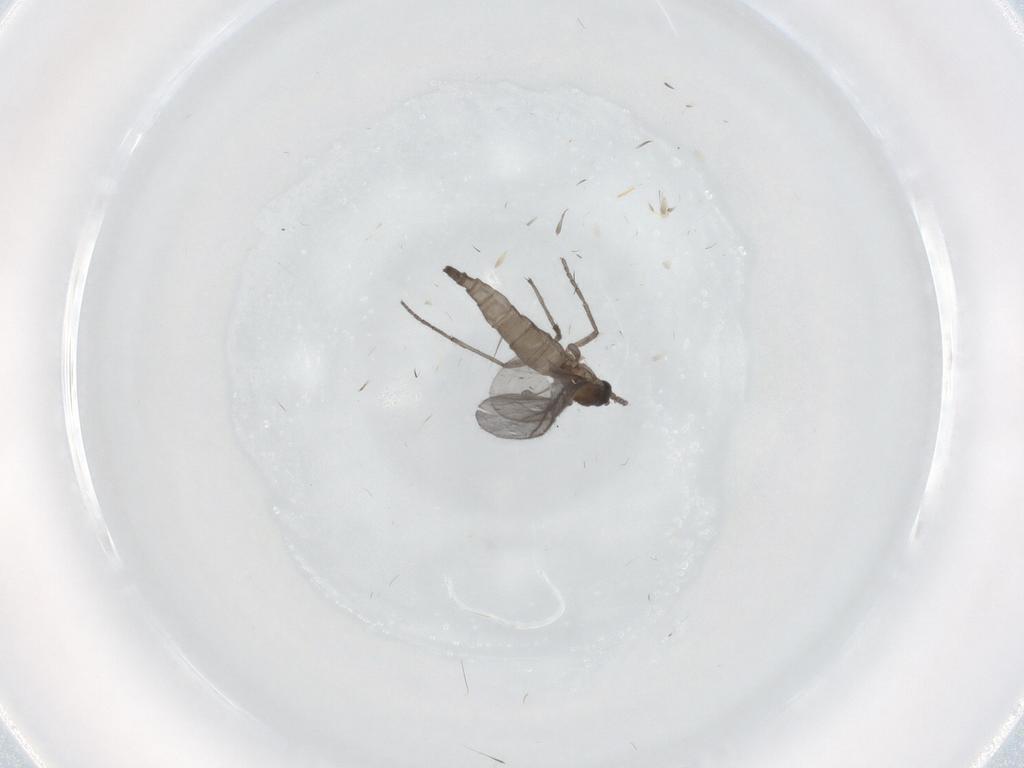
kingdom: Animalia
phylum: Arthropoda
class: Insecta
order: Diptera
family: Sciaridae
